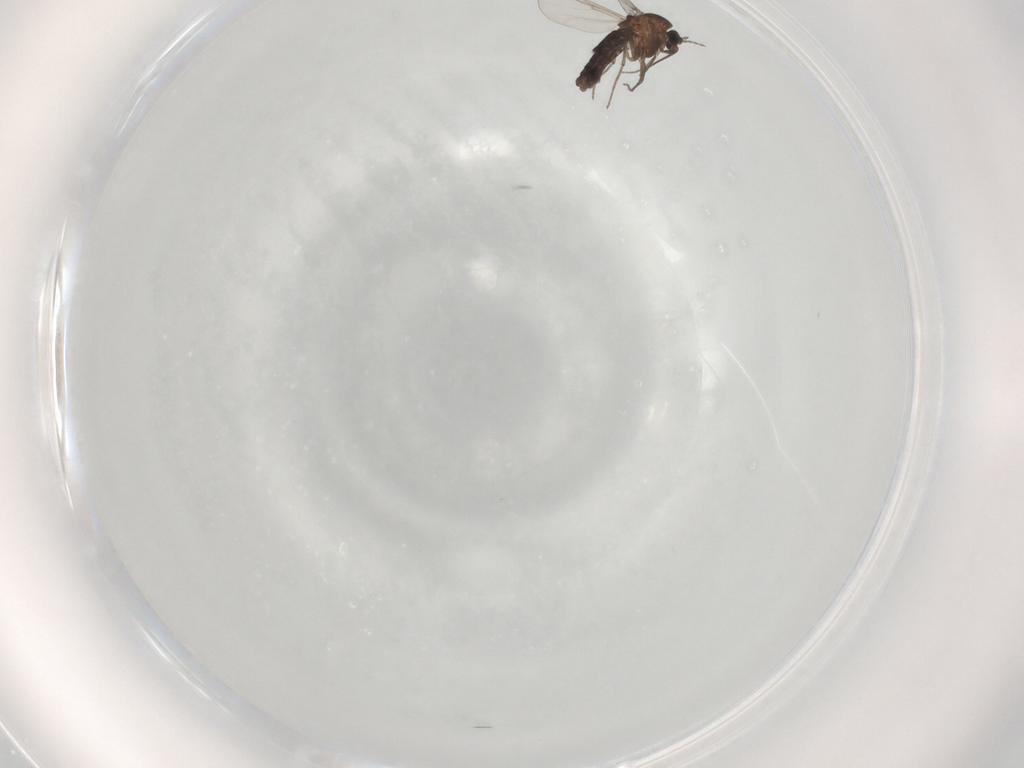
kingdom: Animalia
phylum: Arthropoda
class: Insecta
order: Diptera
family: Chironomidae
